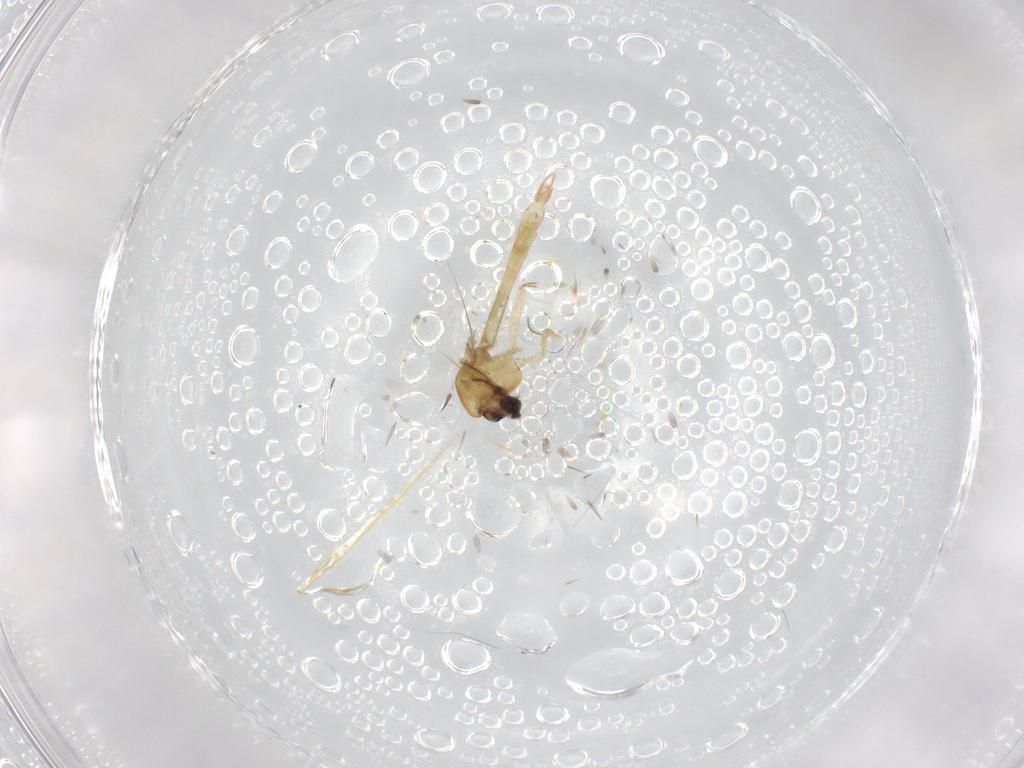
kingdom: Animalia
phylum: Arthropoda
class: Insecta
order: Diptera
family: Chironomidae
